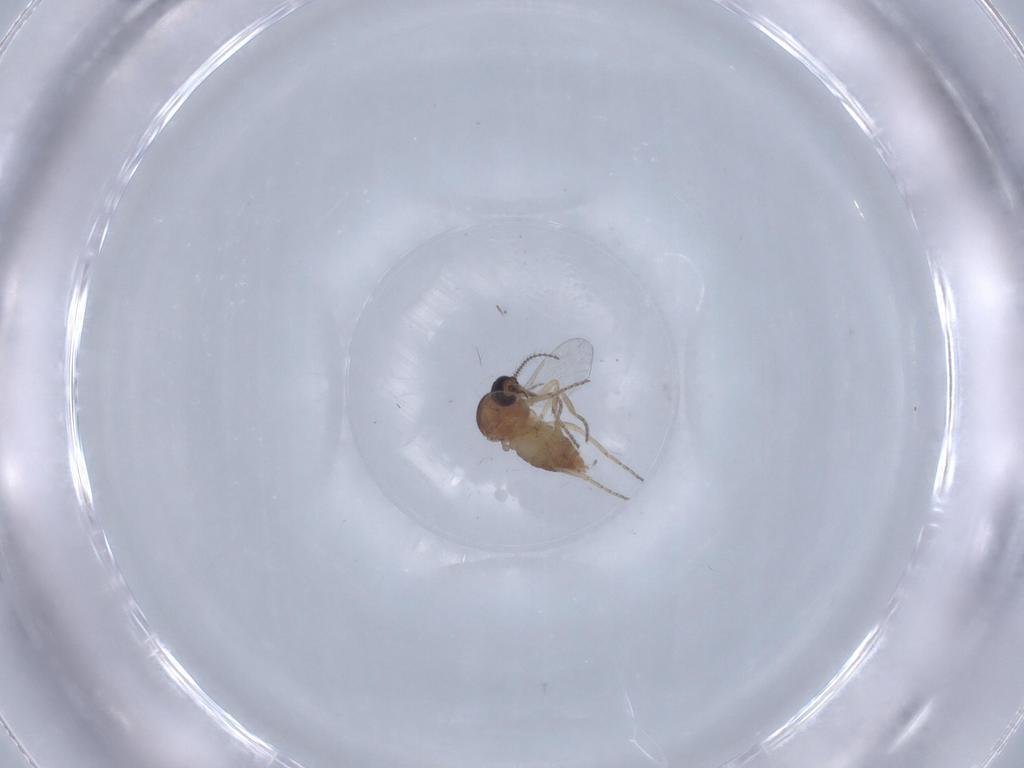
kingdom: Animalia
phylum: Arthropoda
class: Insecta
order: Diptera
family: Ceratopogonidae
